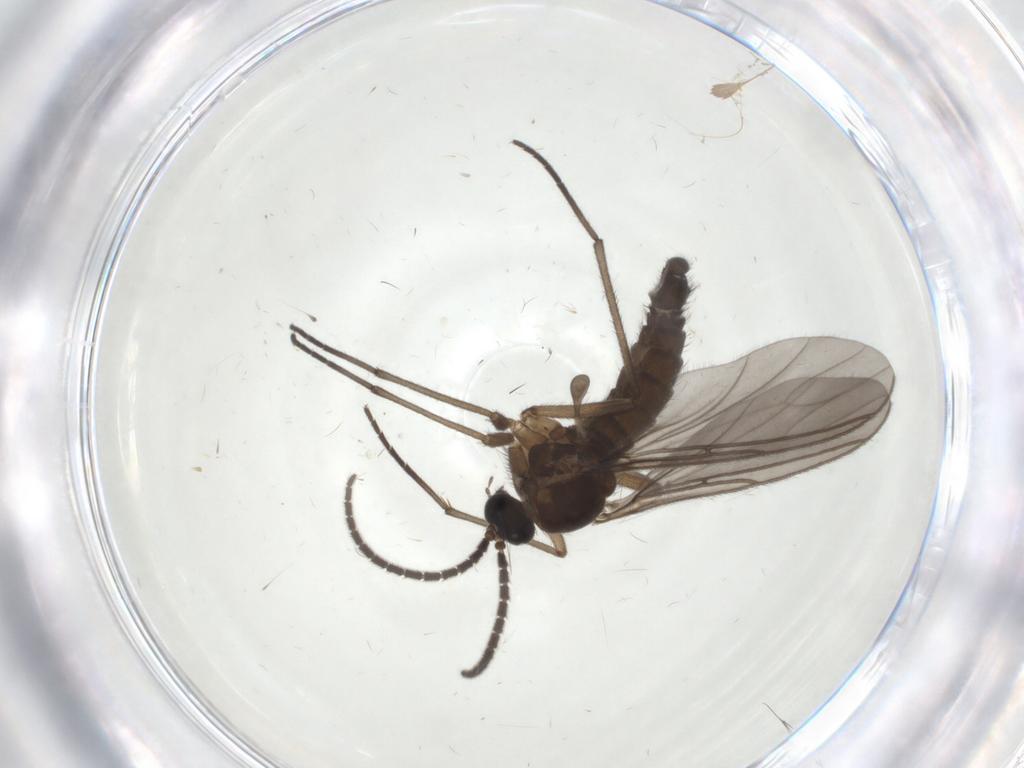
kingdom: Animalia
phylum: Arthropoda
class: Insecta
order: Diptera
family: Sciaridae
